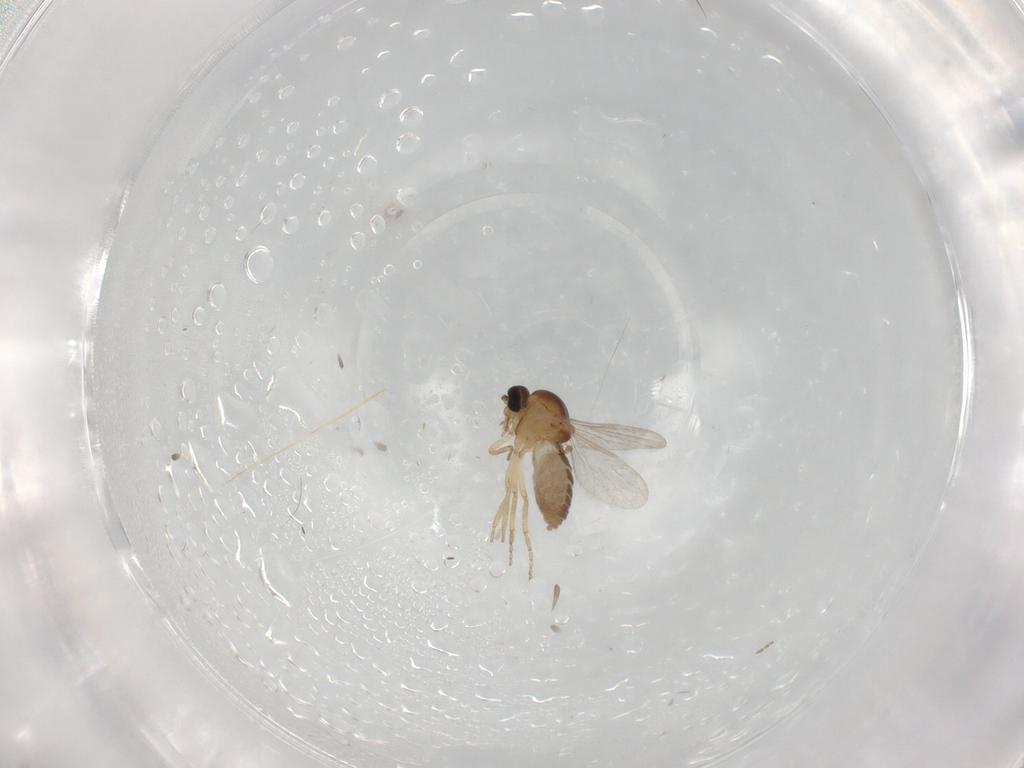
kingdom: Animalia
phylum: Arthropoda
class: Insecta
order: Diptera
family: Ceratopogonidae
